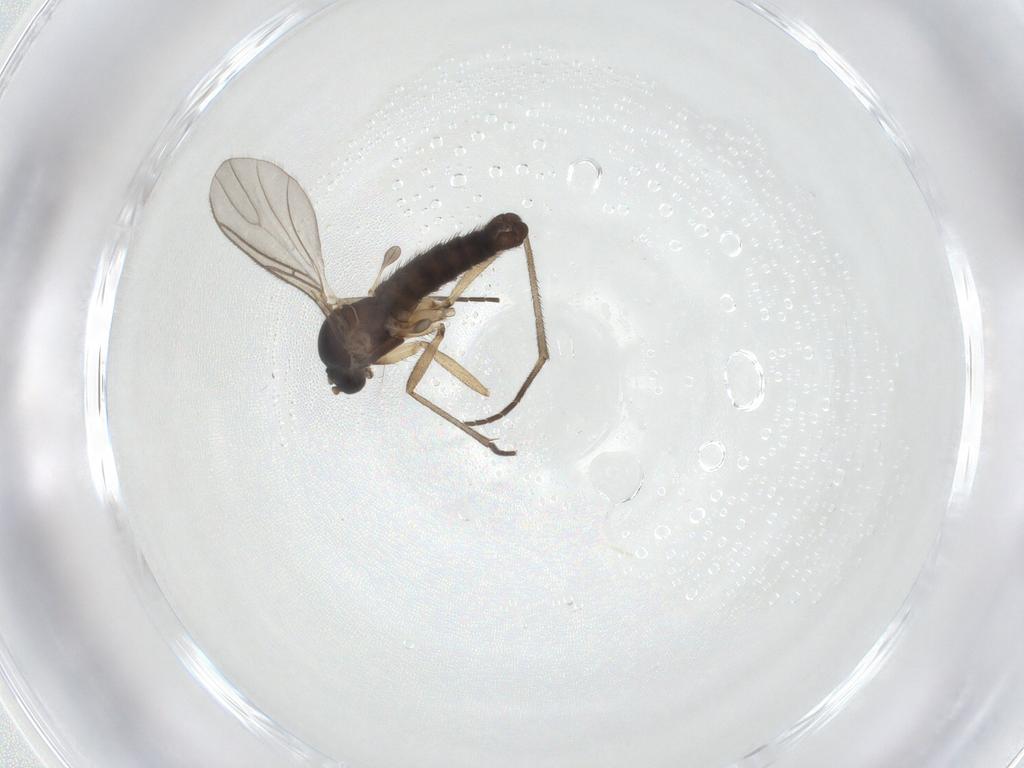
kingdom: Animalia
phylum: Arthropoda
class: Insecta
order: Diptera
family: Sciaridae
